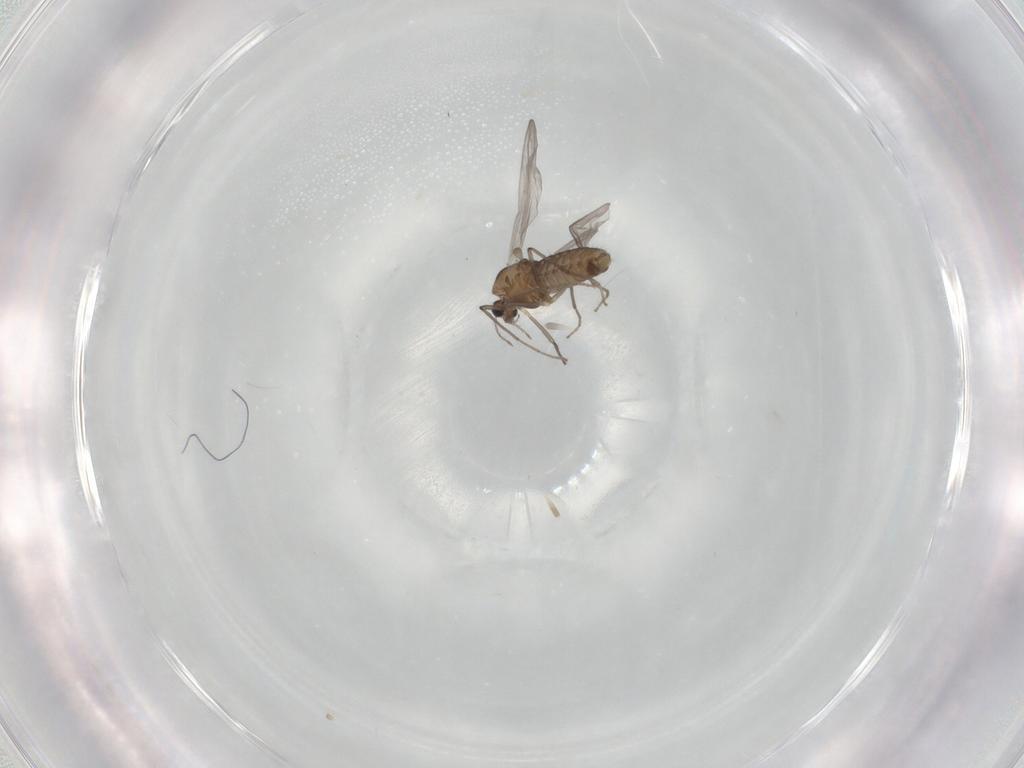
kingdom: Animalia
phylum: Arthropoda
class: Insecta
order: Diptera
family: Chironomidae
